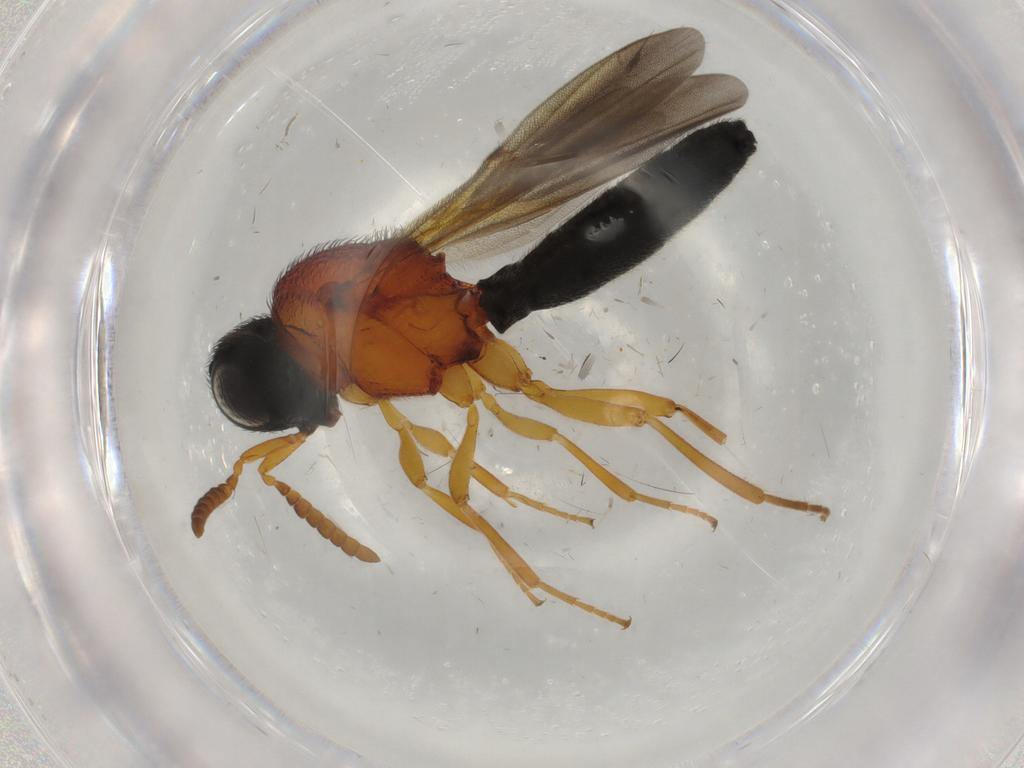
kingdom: Animalia
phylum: Arthropoda
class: Insecta
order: Hymenoptera
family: Scelionidae
